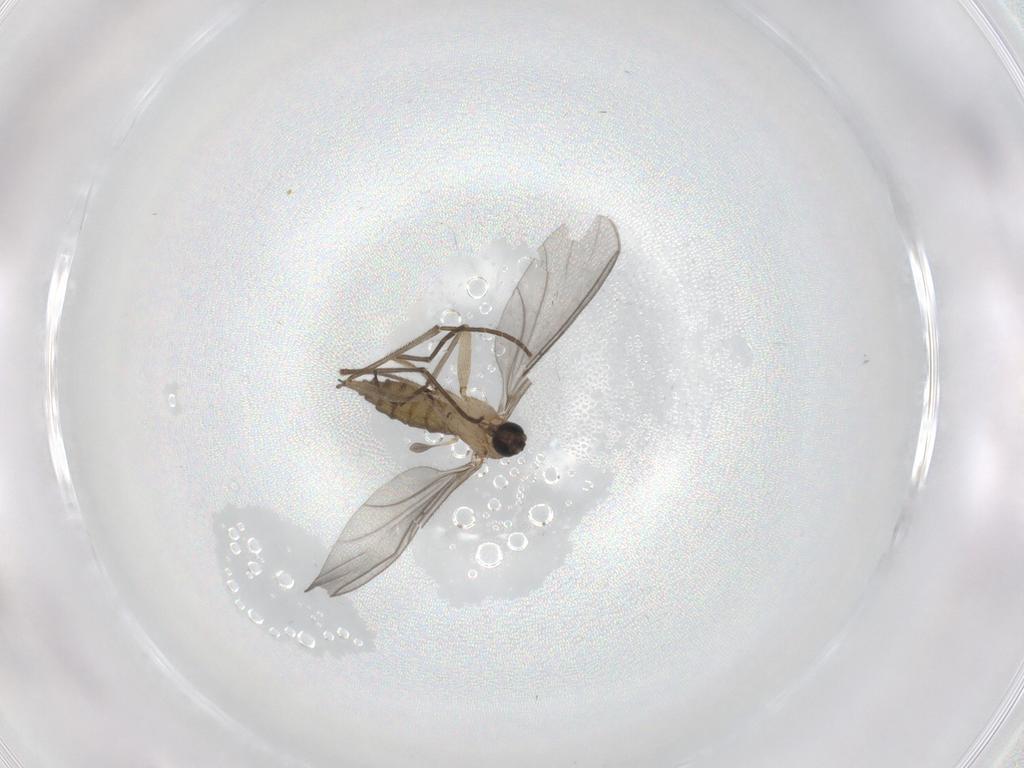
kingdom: Animalia
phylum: Arthropoda
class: Insecta
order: Diptera
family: Sciaridae
